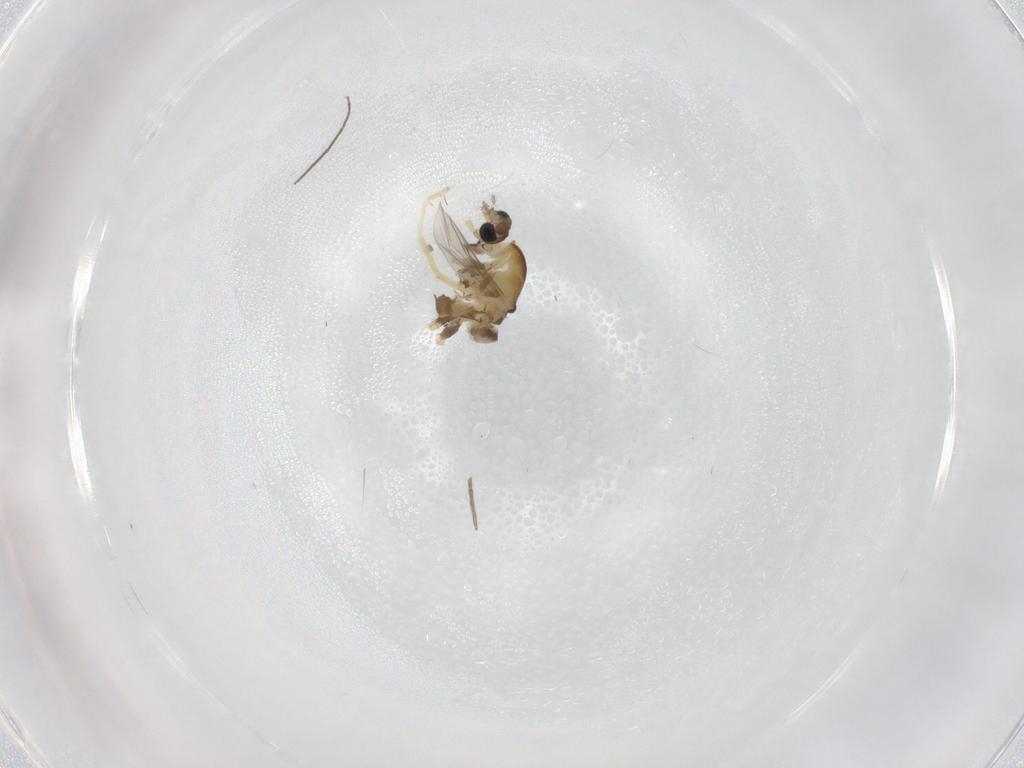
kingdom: Animalia
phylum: Arthropoda
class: Insecta
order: Diptera
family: Chironomidae
